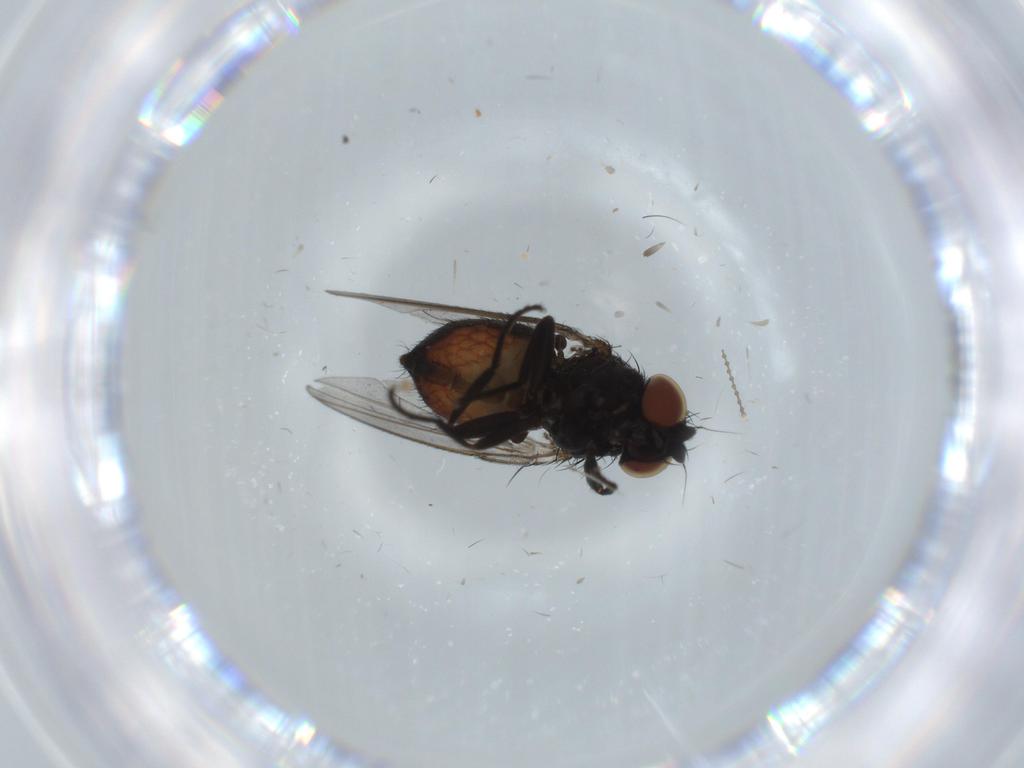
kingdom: Animalia
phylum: Arthropoda
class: Insecta
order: Diptera
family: Milichiidae
